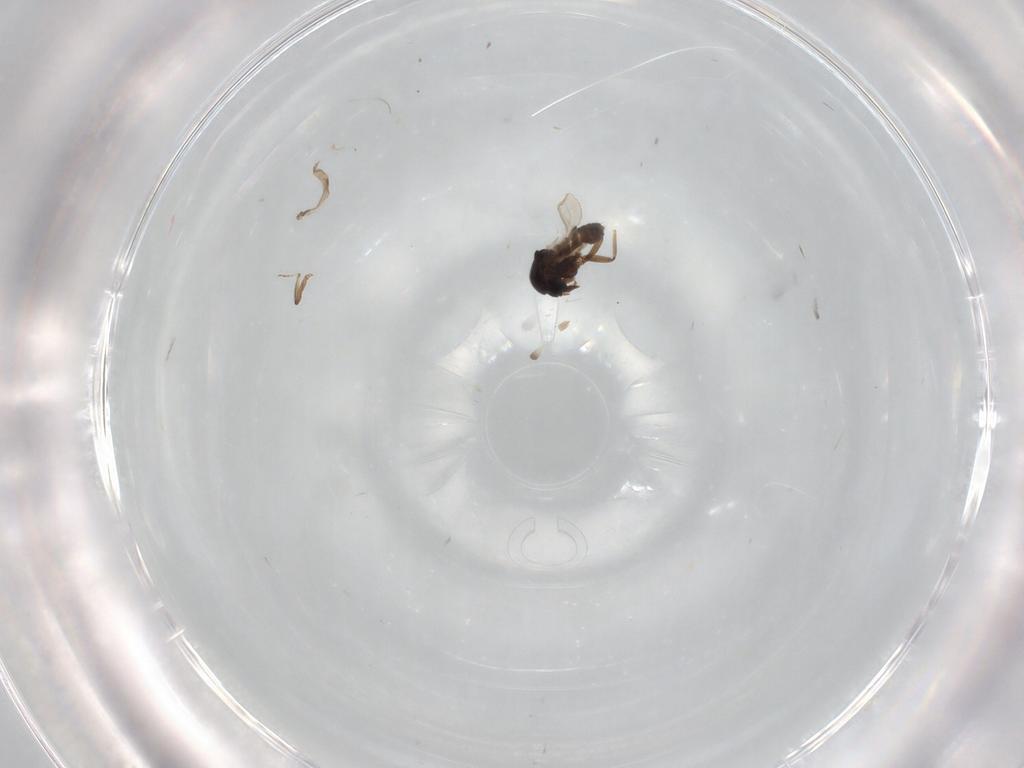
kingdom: Animalia
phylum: Arthropoda
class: Insecta
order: Diptera
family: Ceratopogonidae
